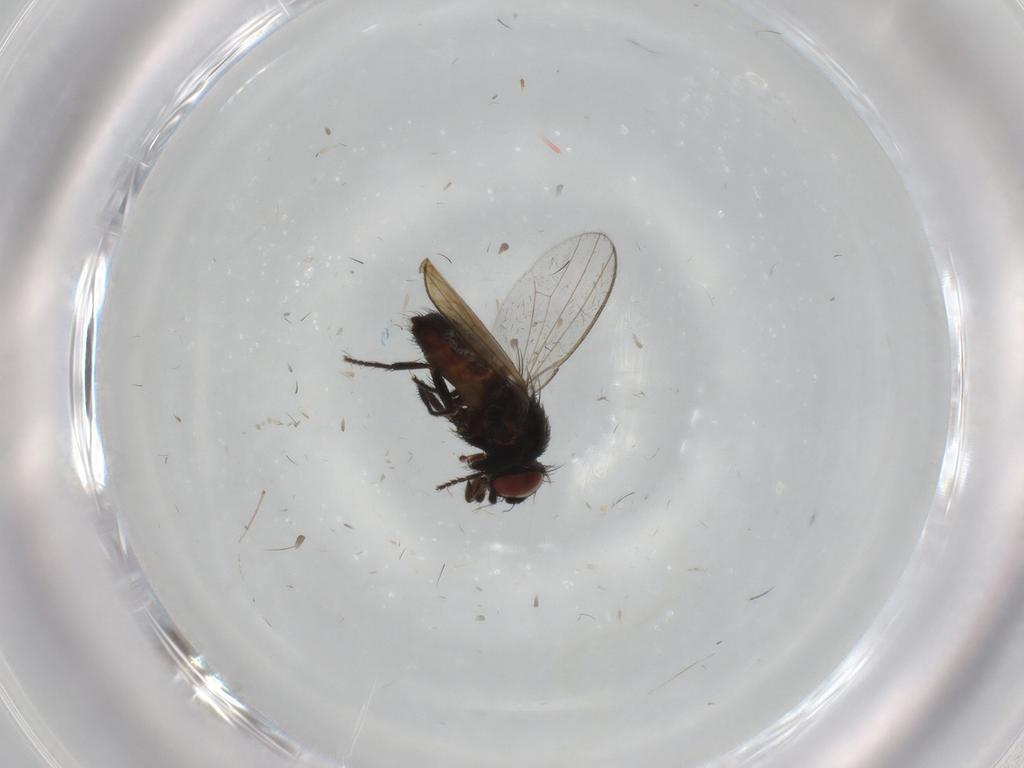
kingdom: Animalia
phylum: Arthropoda
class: Insecta
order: Diptera
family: Milichiidae
